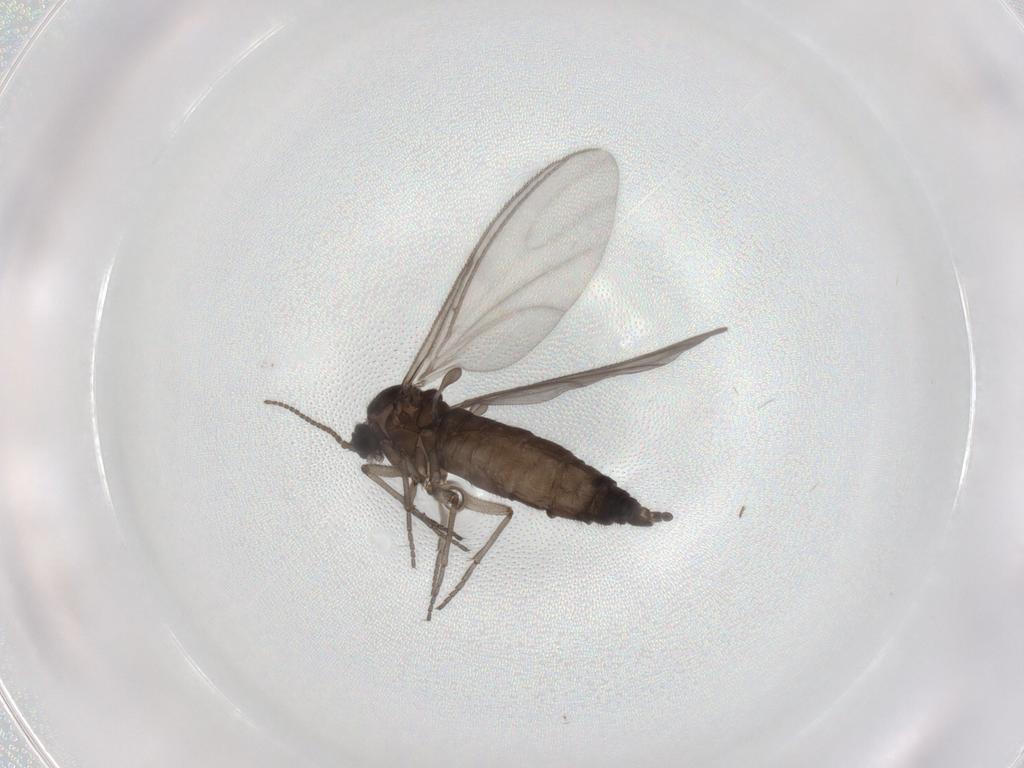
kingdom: Animalia
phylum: Arthropoda
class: Insecta
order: Diptera
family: Sciaridae
